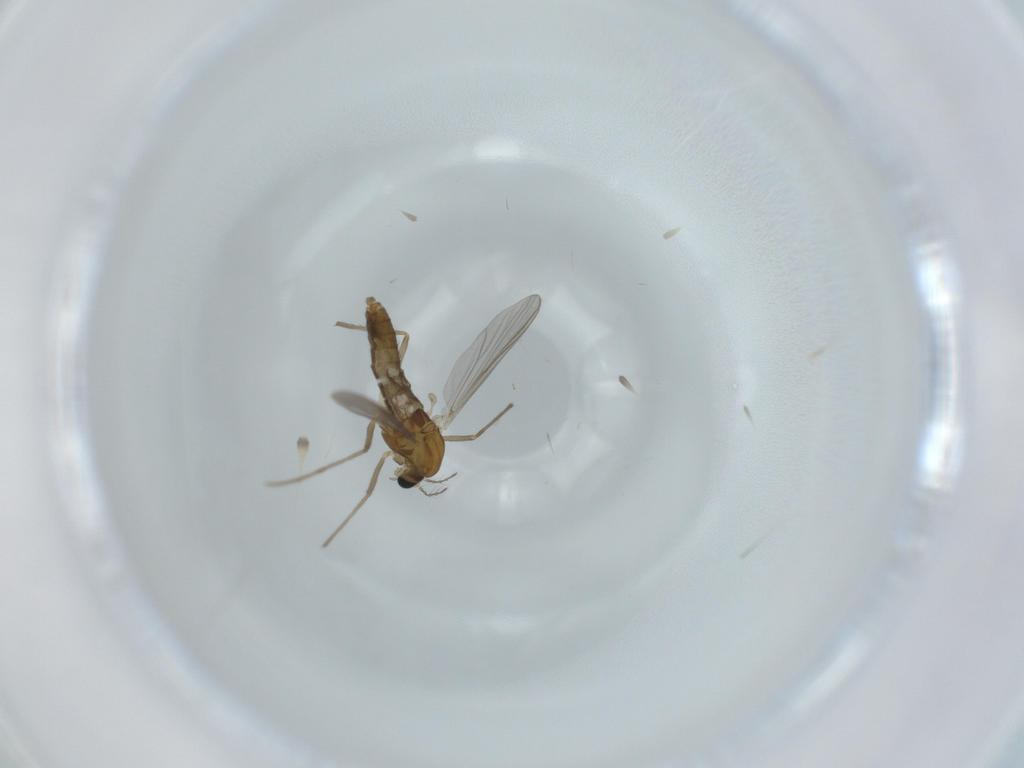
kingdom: Animalia
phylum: Arthropoda
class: Insecta
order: Diptera
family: Chironomidae
